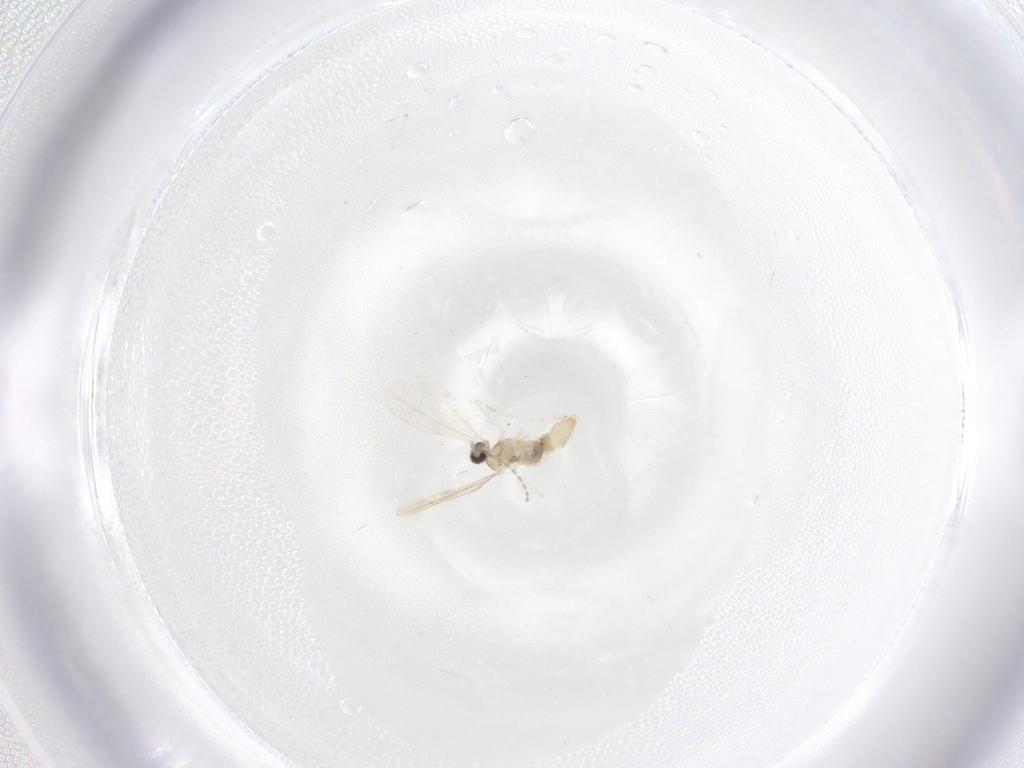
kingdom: Animalia
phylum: Arthropoda
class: Insecta
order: Diptera
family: Cecidomyiidae
